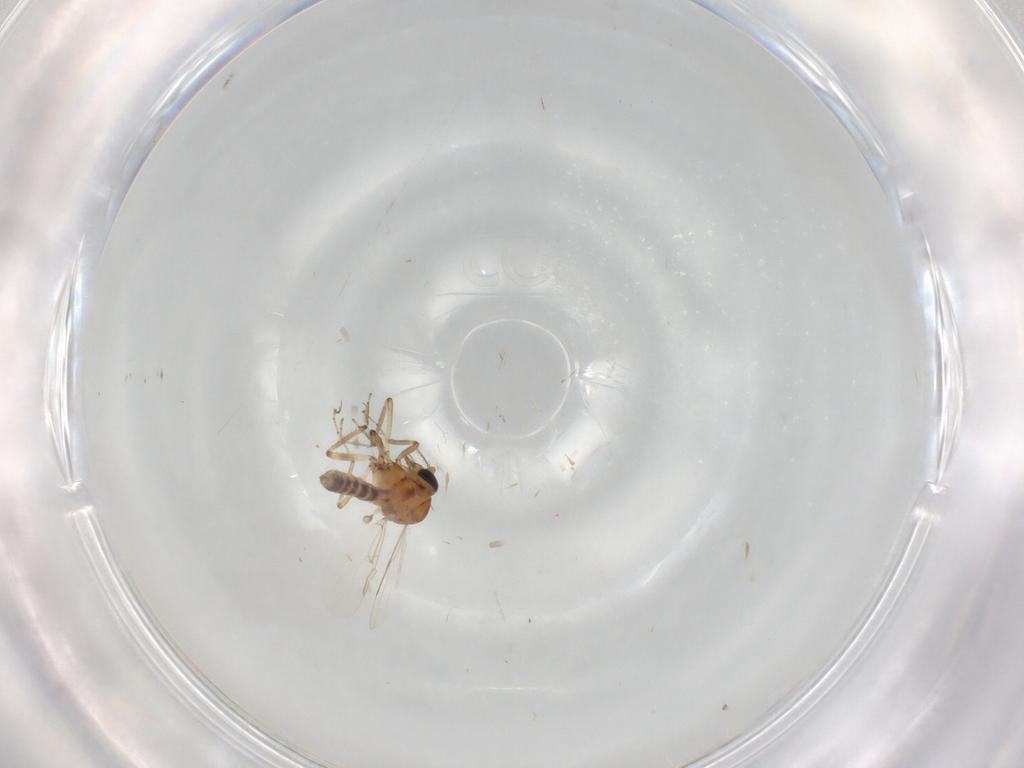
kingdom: Animalia
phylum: Arthropoda
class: Insecta
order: Diptera
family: Ceratopogonidae
